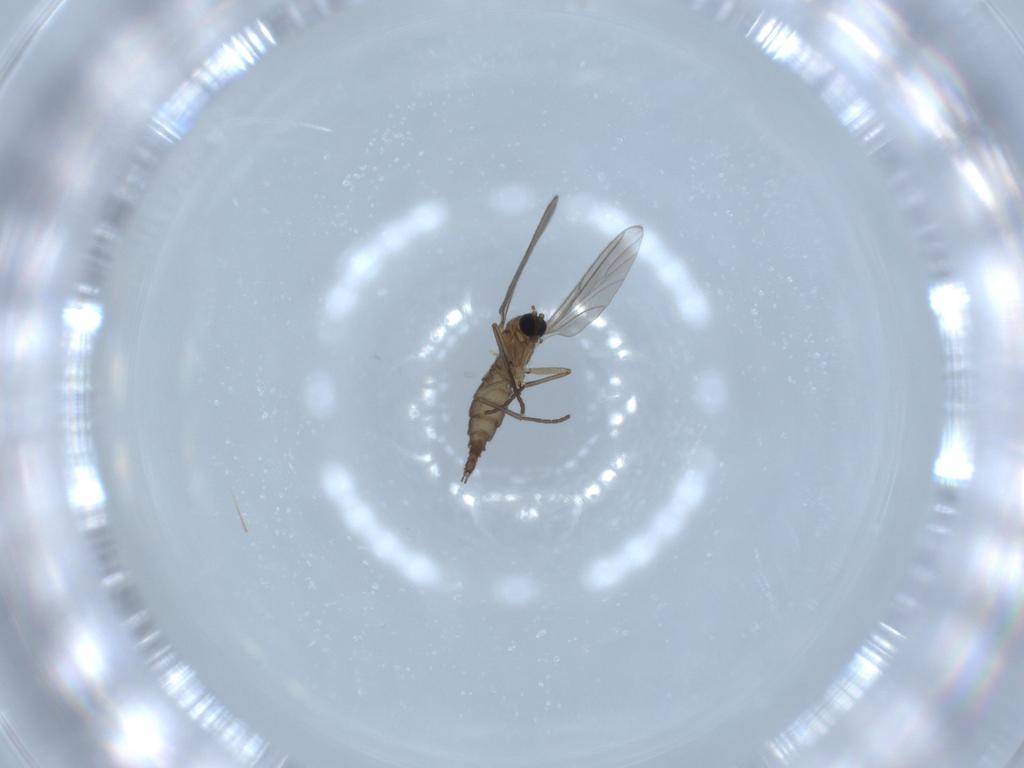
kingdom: Animalia
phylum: Arthropoda
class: Insecta
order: Diptera
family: Sciaridae
